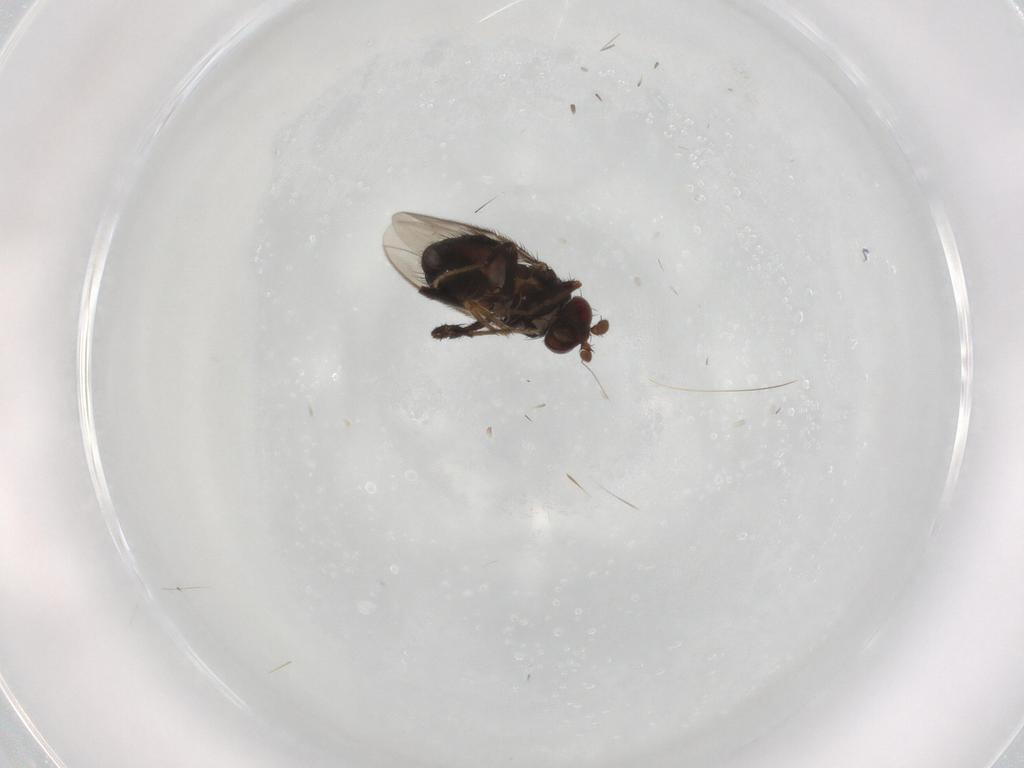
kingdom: Animalia
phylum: Arthropoda
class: Insecta
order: Diptera
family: Sphaeroceridae
